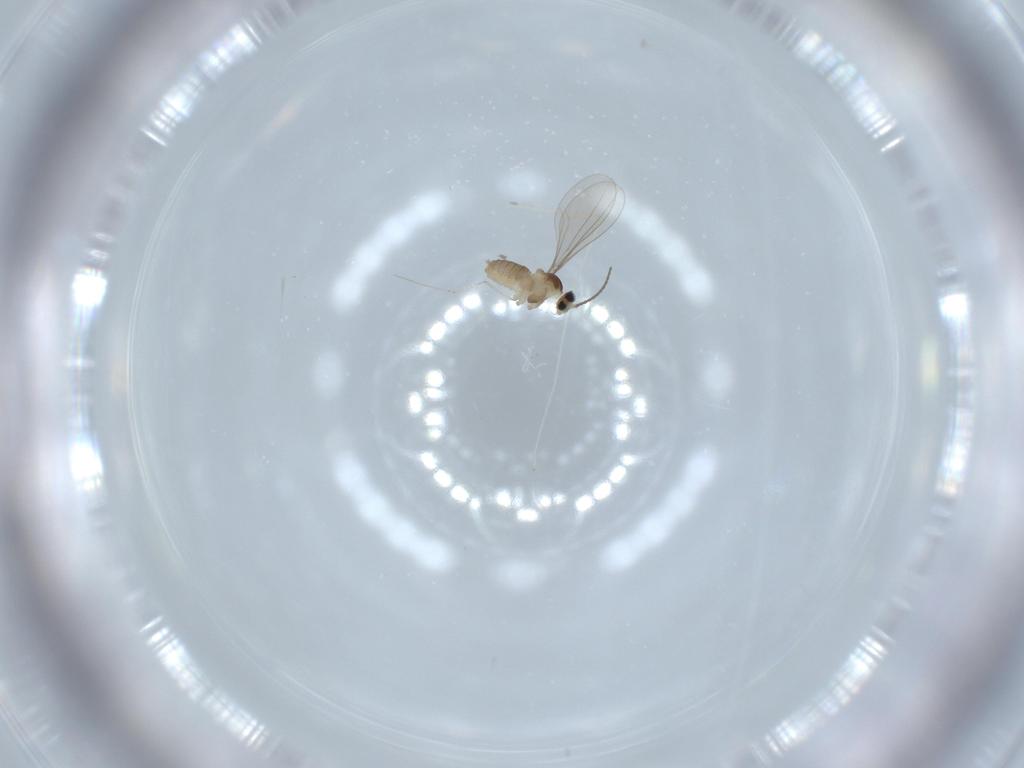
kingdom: Animalia
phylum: Arthropoda
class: Insecta
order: Diptera
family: Cecidomyiidae
